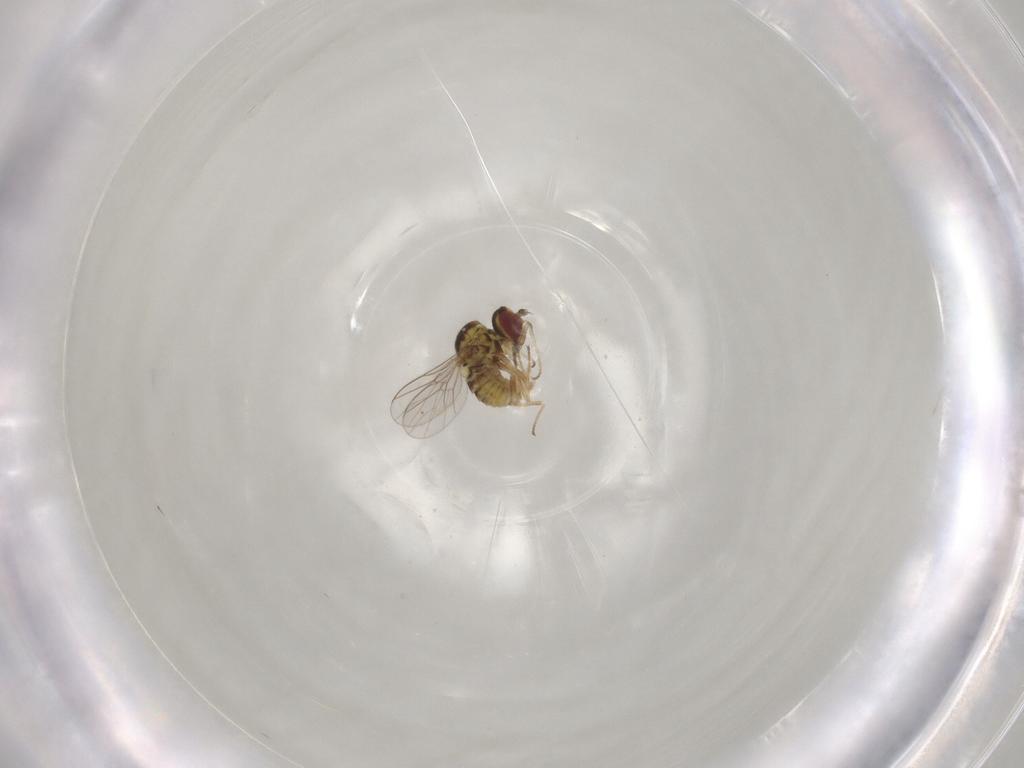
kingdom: Animalia
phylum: Arthropoda
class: Insecta
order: Diptera
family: Mythicomyiidae
